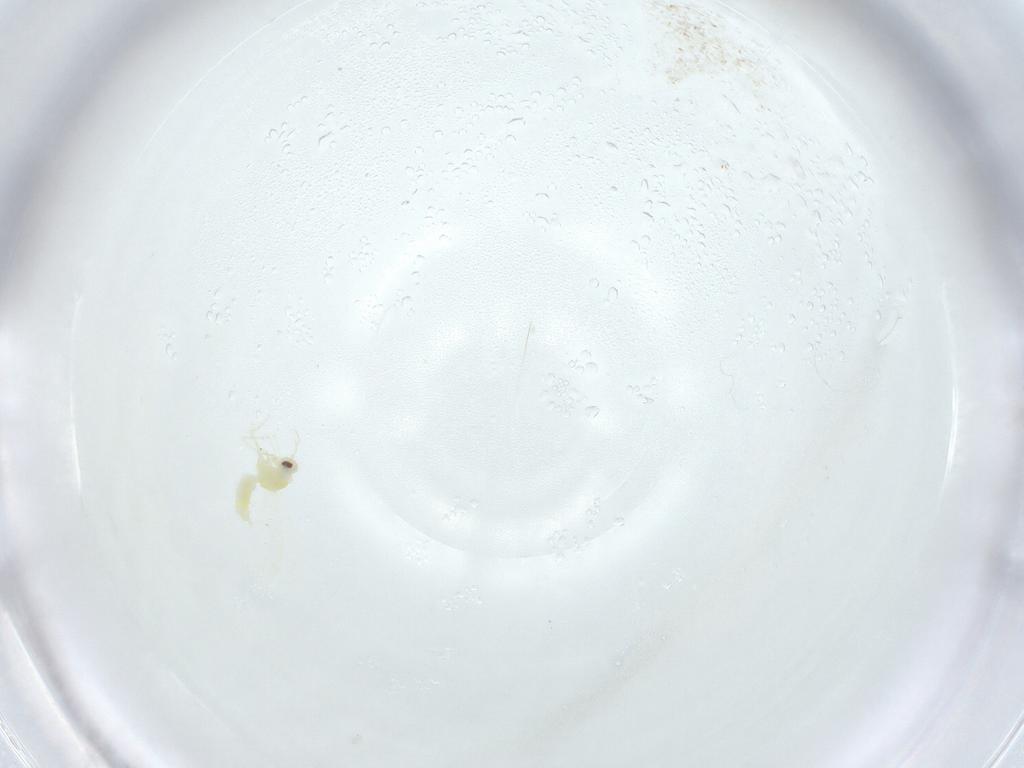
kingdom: Animalia
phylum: Arthropoda
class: Insecta
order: Hemiptera
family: Aleyrodidae
